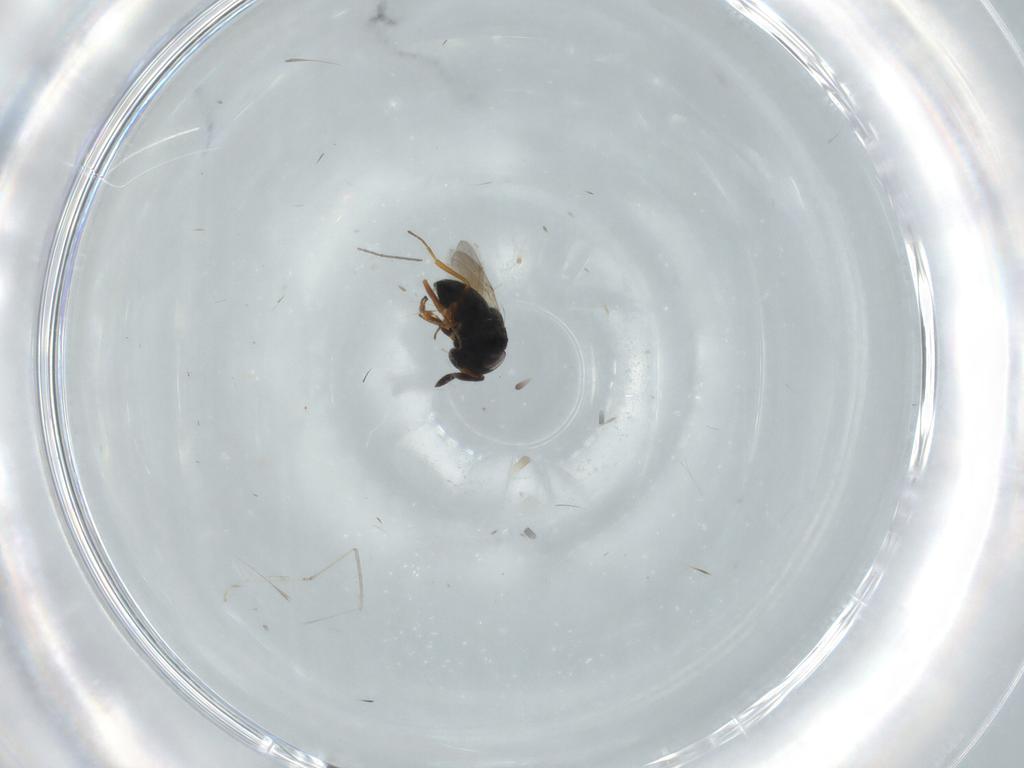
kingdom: Animalia
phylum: Arthropoda
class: Insecta
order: Hymenoptera
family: Scelionidae
